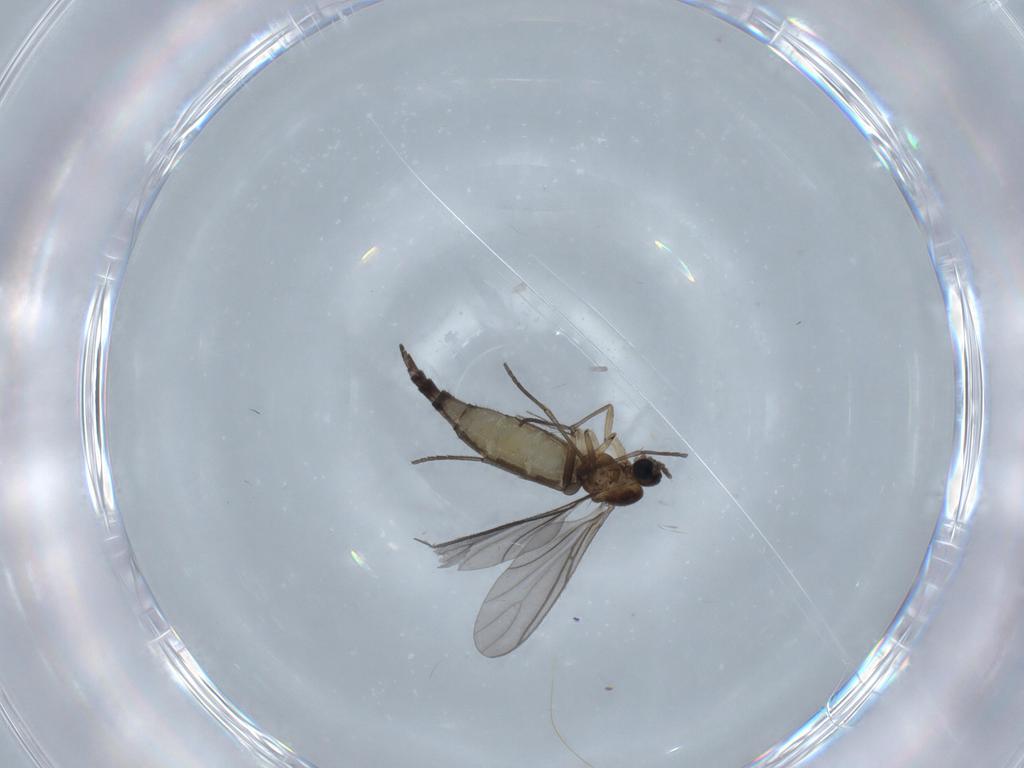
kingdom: Animalia
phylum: Arthropoda
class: Insecta
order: Diptera
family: Sciaridae
